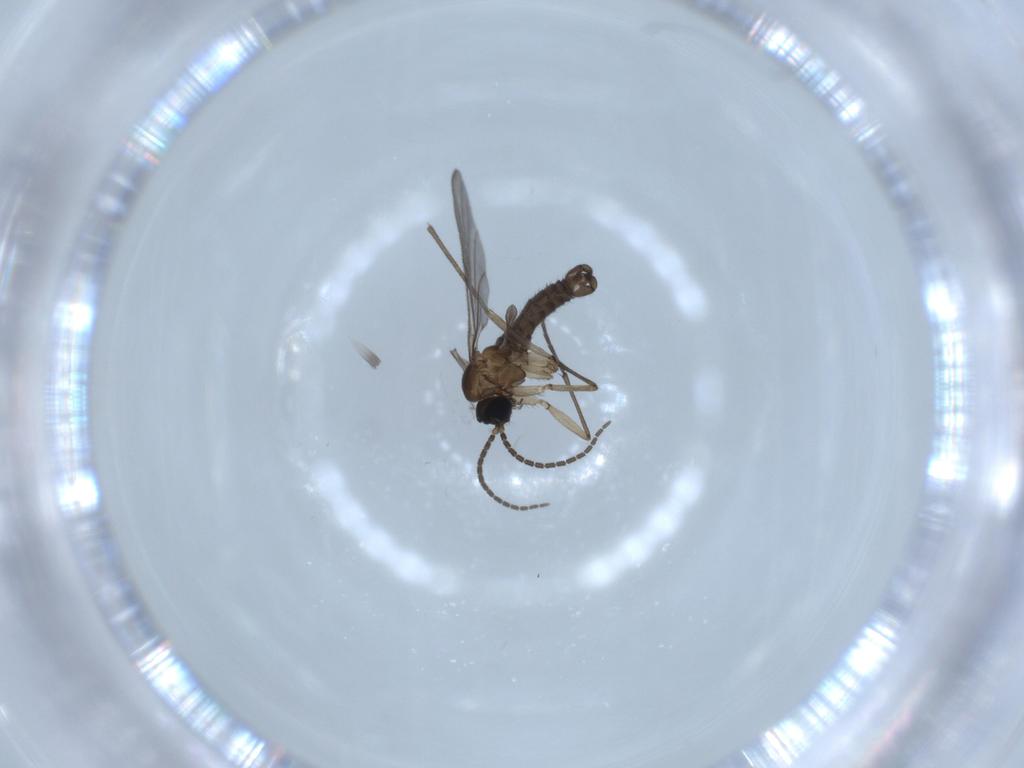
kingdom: Animalia
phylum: Arthropoda
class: Insecta
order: Diptera
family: Sciaridae
